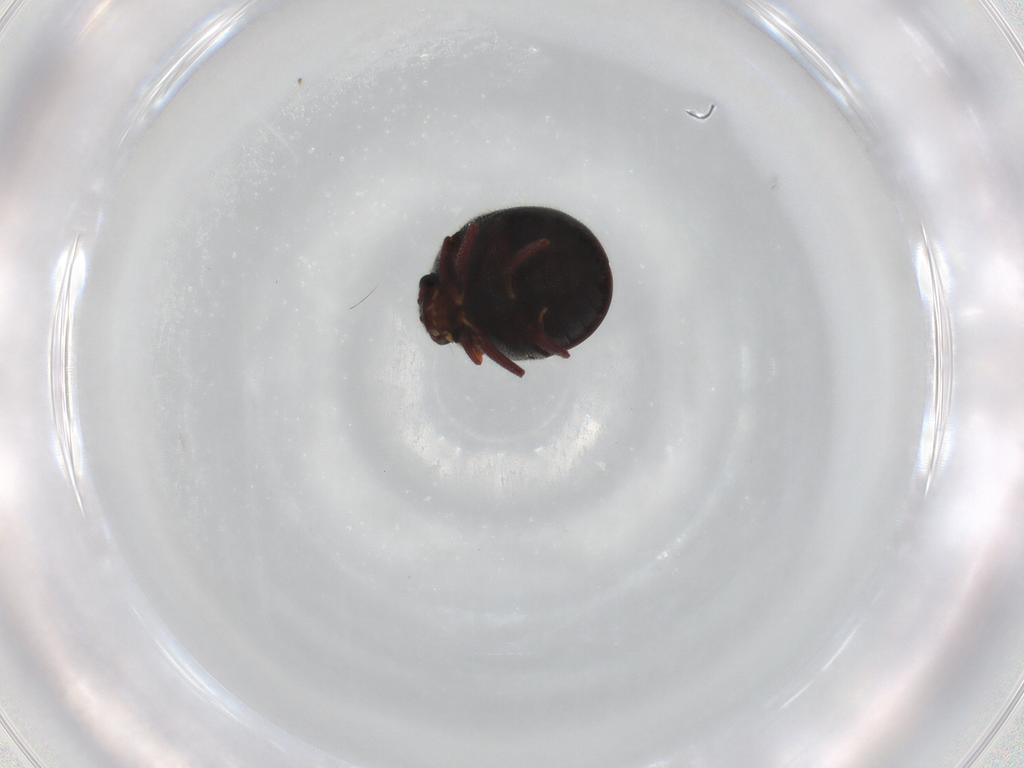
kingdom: Animalia
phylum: Arthropoda
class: Insecta
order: Coleoptera
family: Ptinidae
